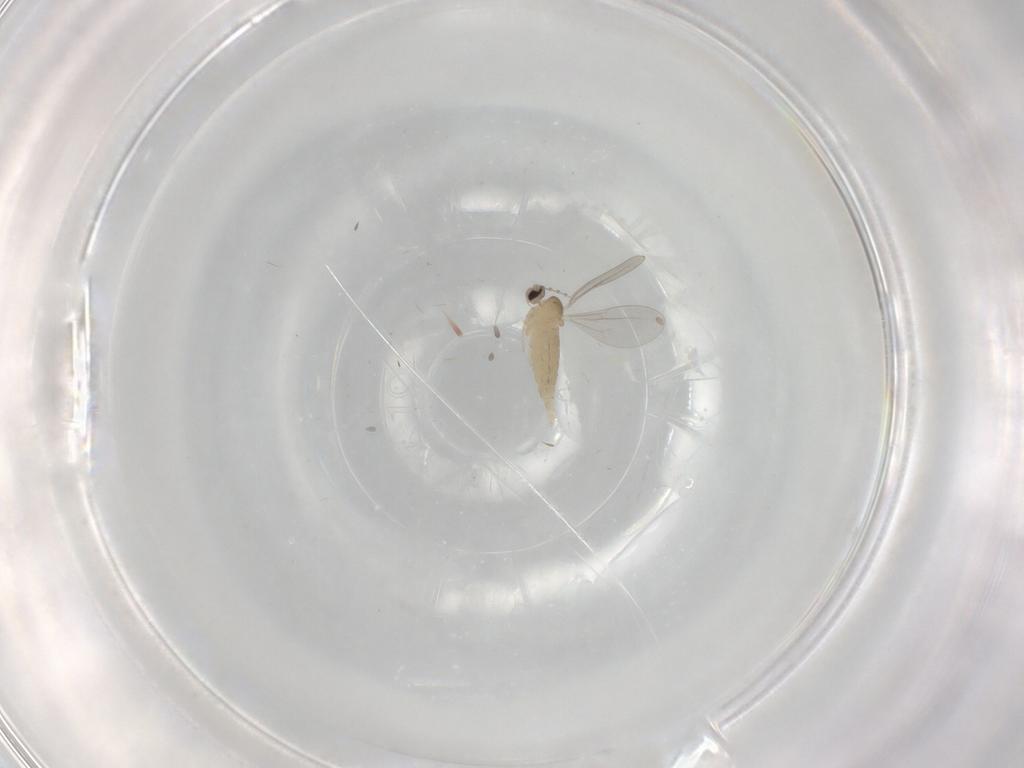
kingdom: Animalia
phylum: Arthropoda
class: Insecta
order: Diptera
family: Cecidomyiidae
